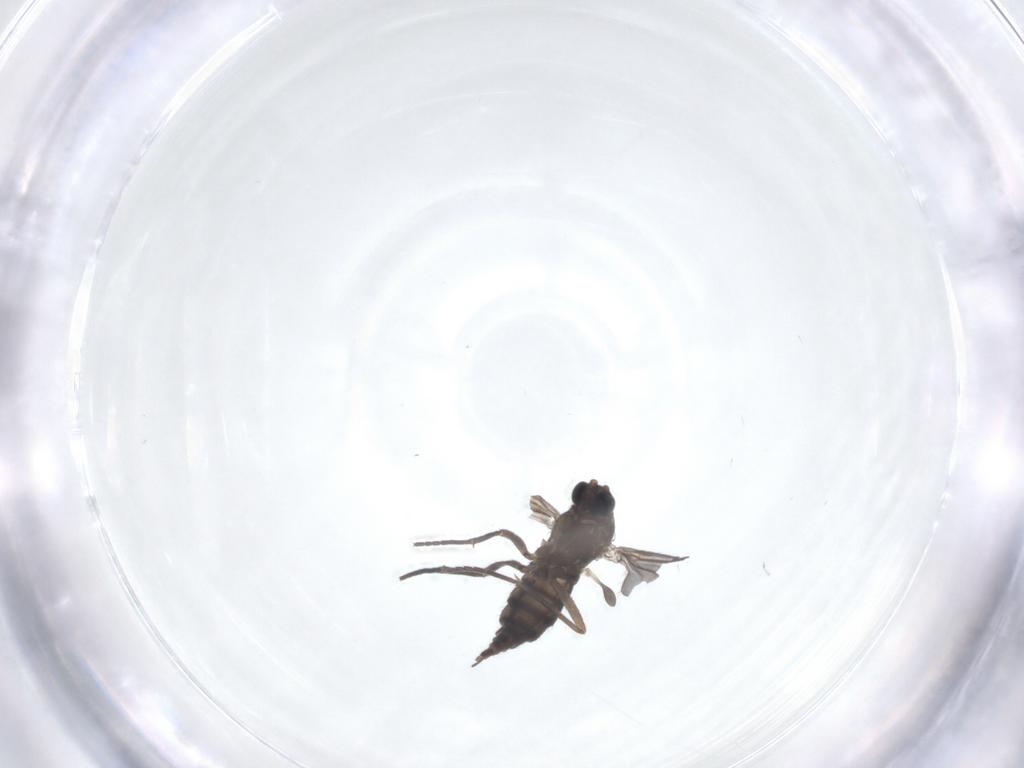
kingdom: Animalia
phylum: Arthropoda
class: Insecta
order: Diptera
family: Sciaridae
